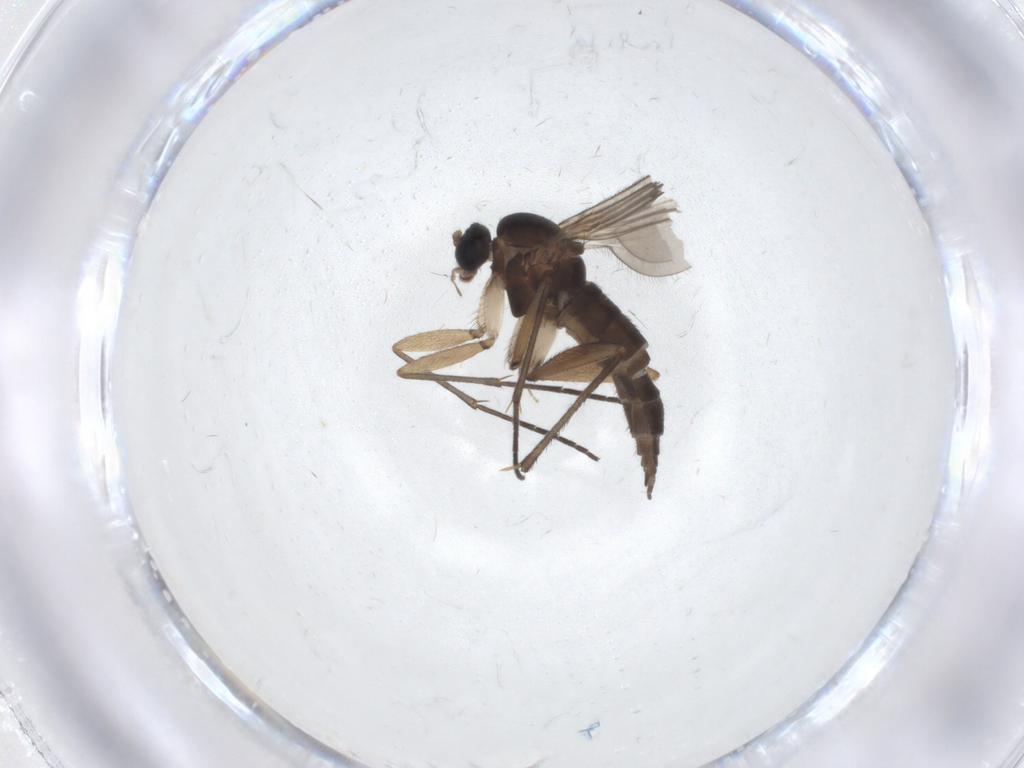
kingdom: Animalia
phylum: Arthropoda
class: Insecta
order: Diptera
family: Sciaridae
